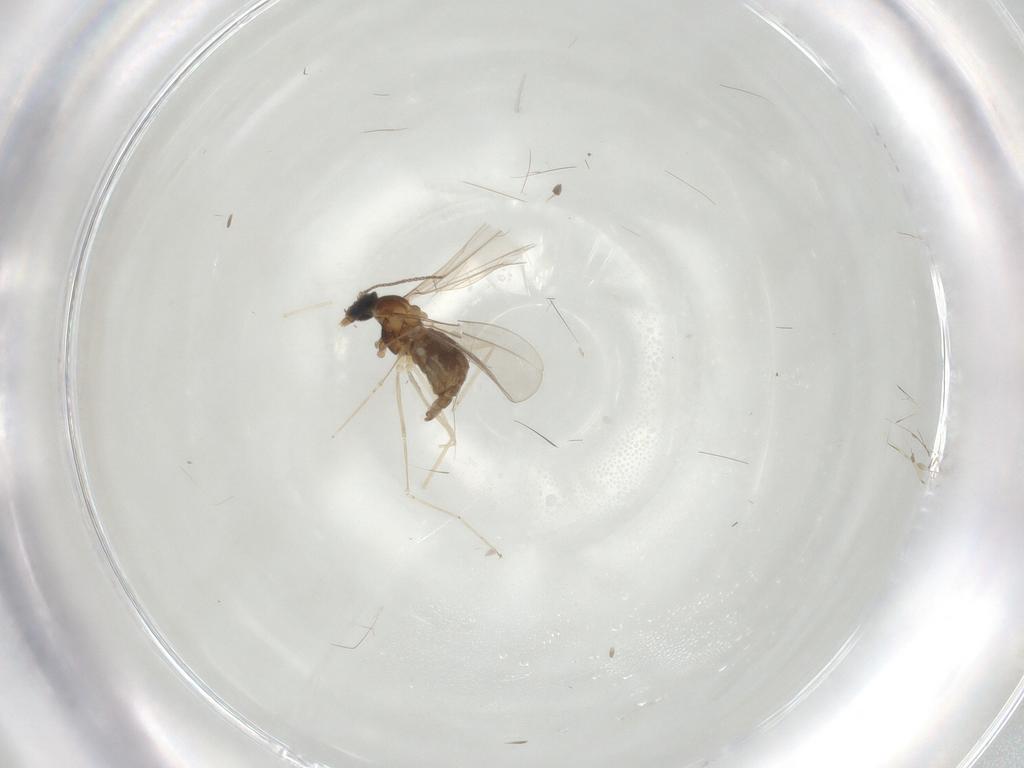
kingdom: Animalia
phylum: Arthropoda
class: Insecta
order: Diptera
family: Cecidomyiidae
